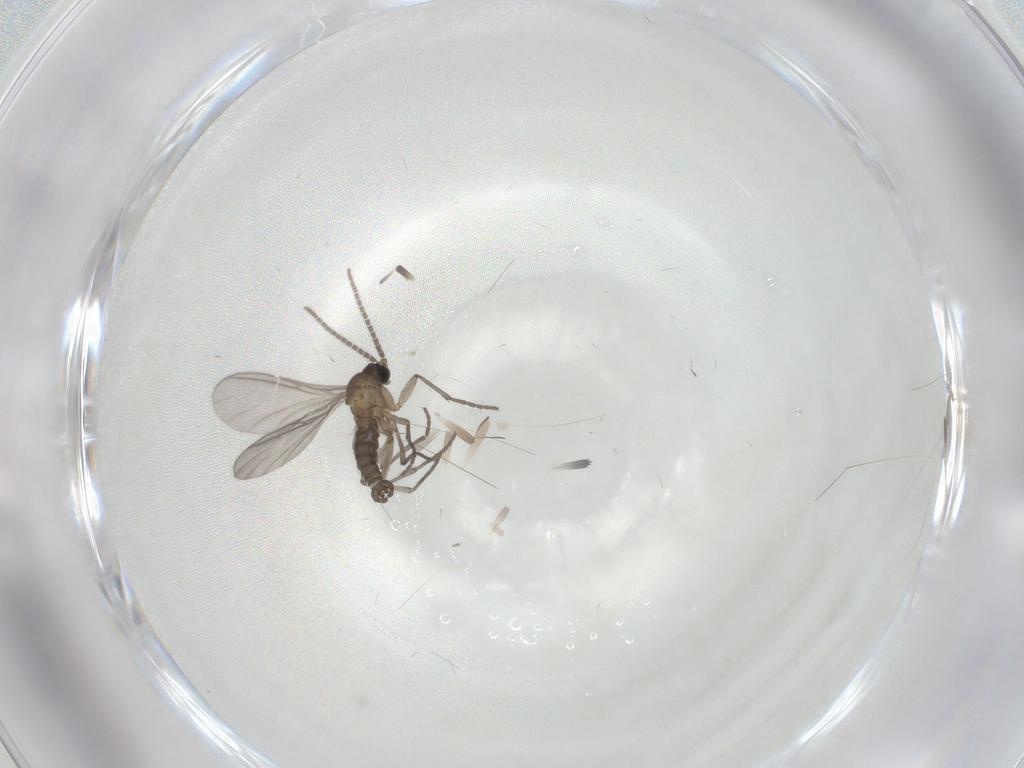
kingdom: Animalia
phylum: Arthropoda
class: Insecta
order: Diptera
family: Sciaridae
